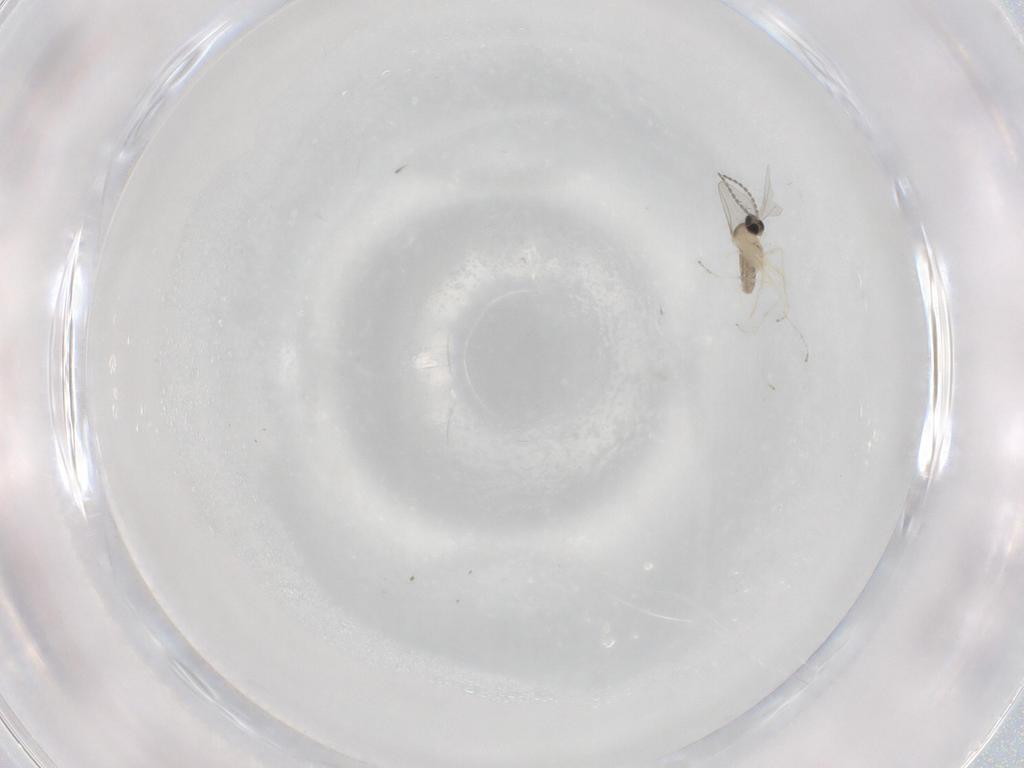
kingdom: Animalia
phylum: Arthropoda
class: Insecta
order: Diptera
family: Cecidomyiidae
